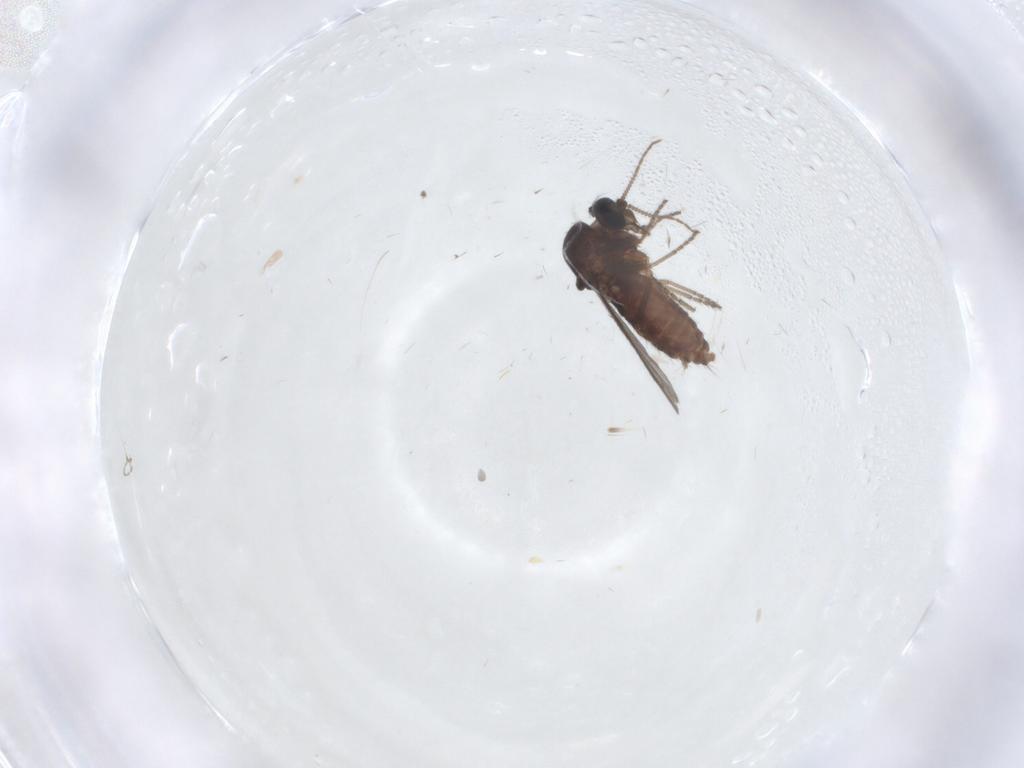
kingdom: Animalia
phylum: Arthropoda
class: Insecta
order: Diptera
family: Ceratopogonidae
